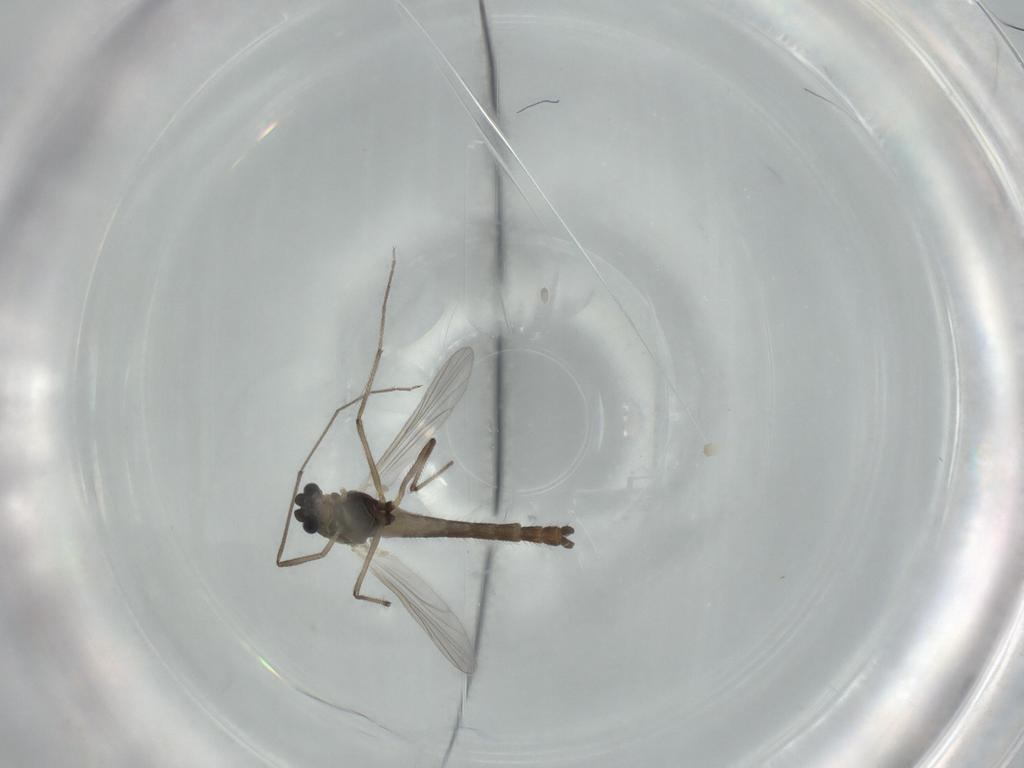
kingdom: Animalia
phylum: Arthropoda
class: Insecta
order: Diptera
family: Chironomidae
